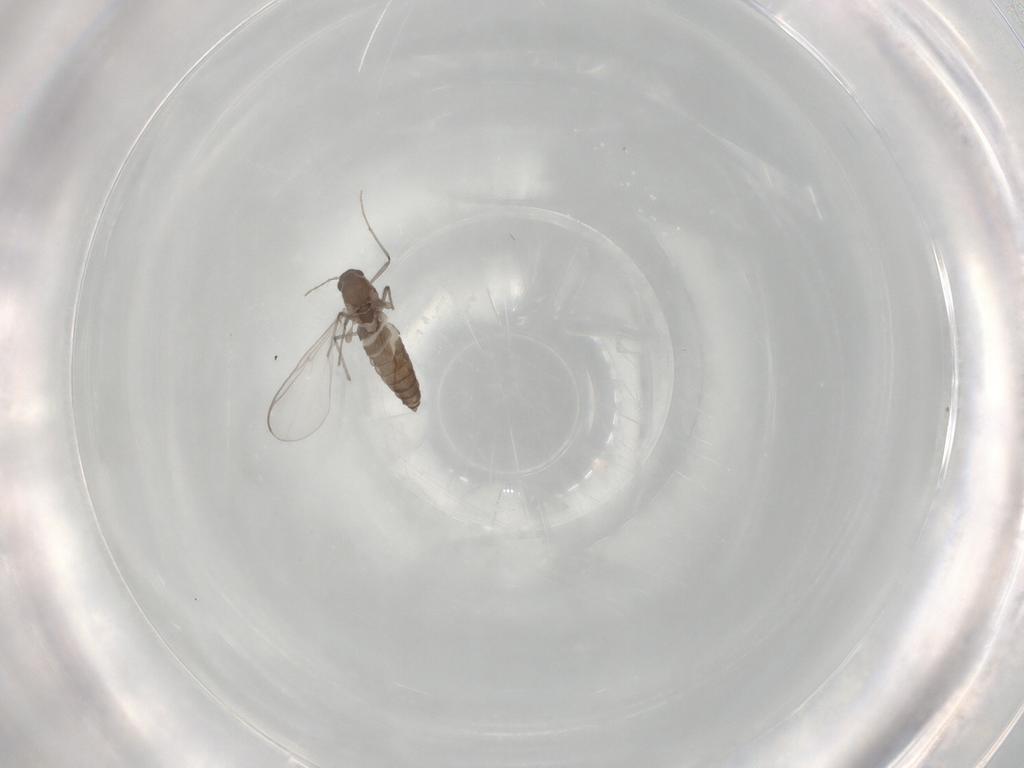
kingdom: Animalia
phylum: Arthropoda
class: Insecta
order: Diptera
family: Chironomidae
